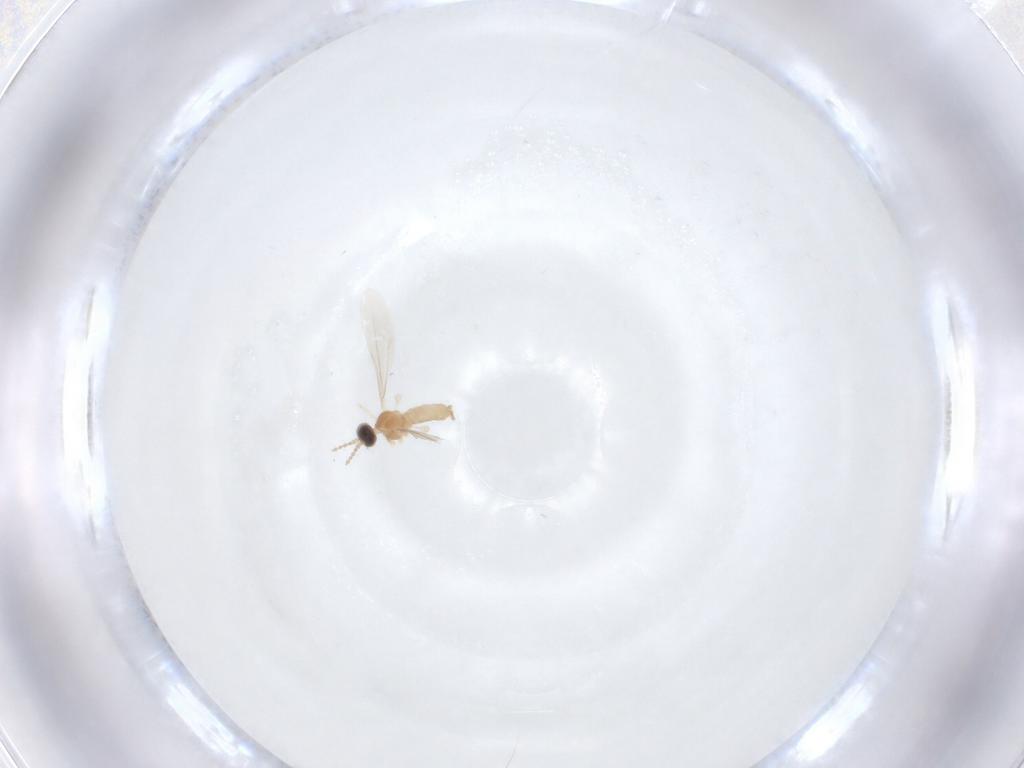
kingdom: Animalia
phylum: Arthropoda
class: Insecta
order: Diptera
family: Cecidomyiidae
